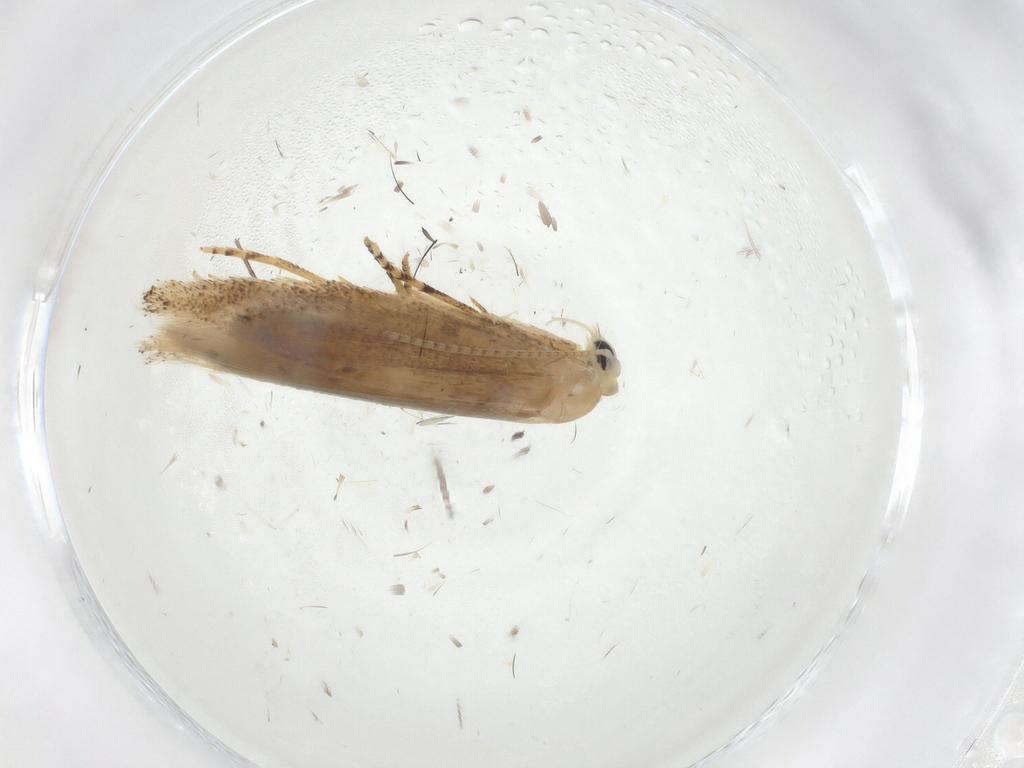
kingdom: Animalia
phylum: Arthropoda
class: Insecta
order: Lepidoptera
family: Bucculatricidae
